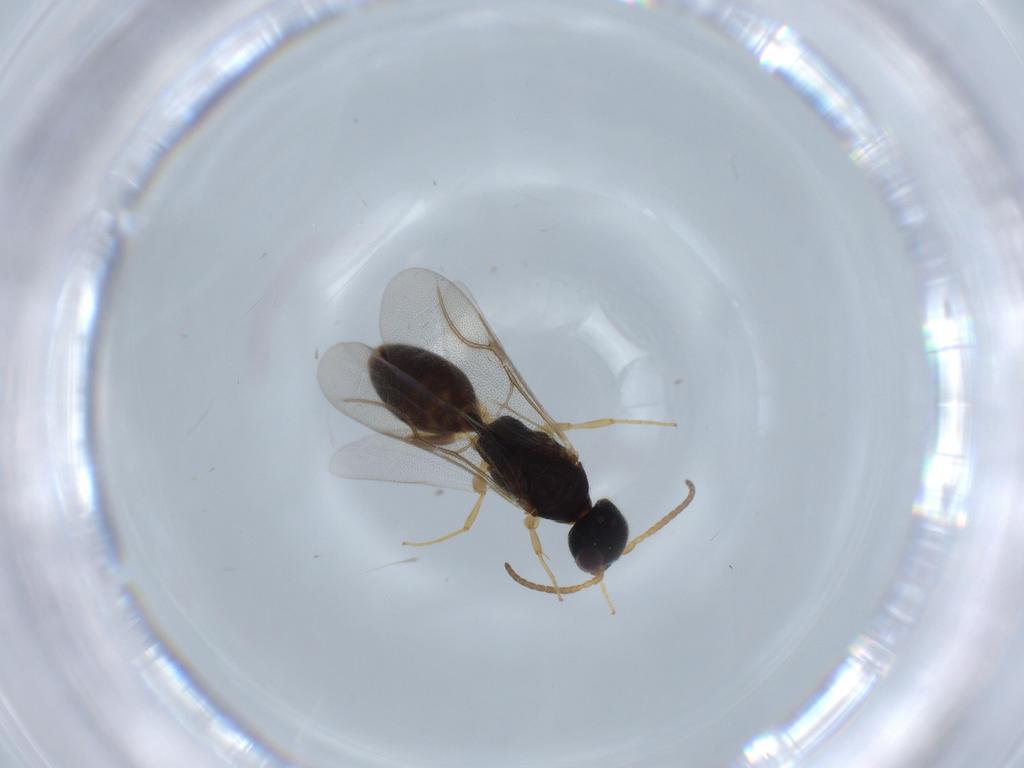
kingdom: Animalia
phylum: Arthropoda
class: Insecta
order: Hymenoptera
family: Bethylidae
